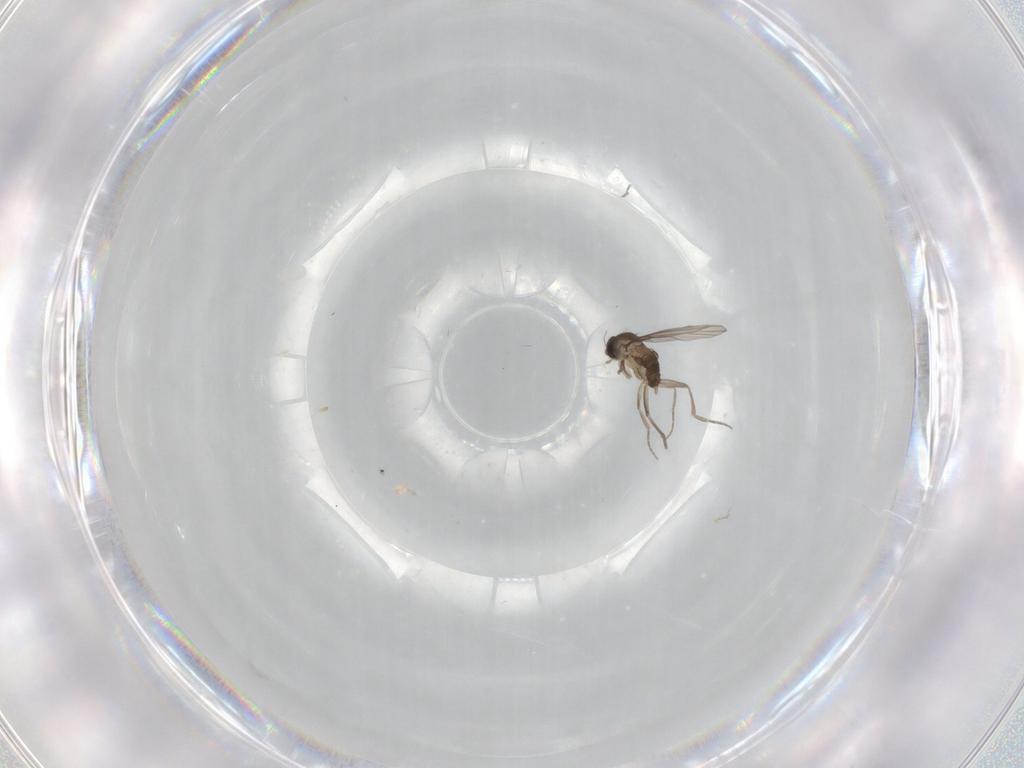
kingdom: Animalia
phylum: Arthropoda
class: Insecta
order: Diptera
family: Phoridae
